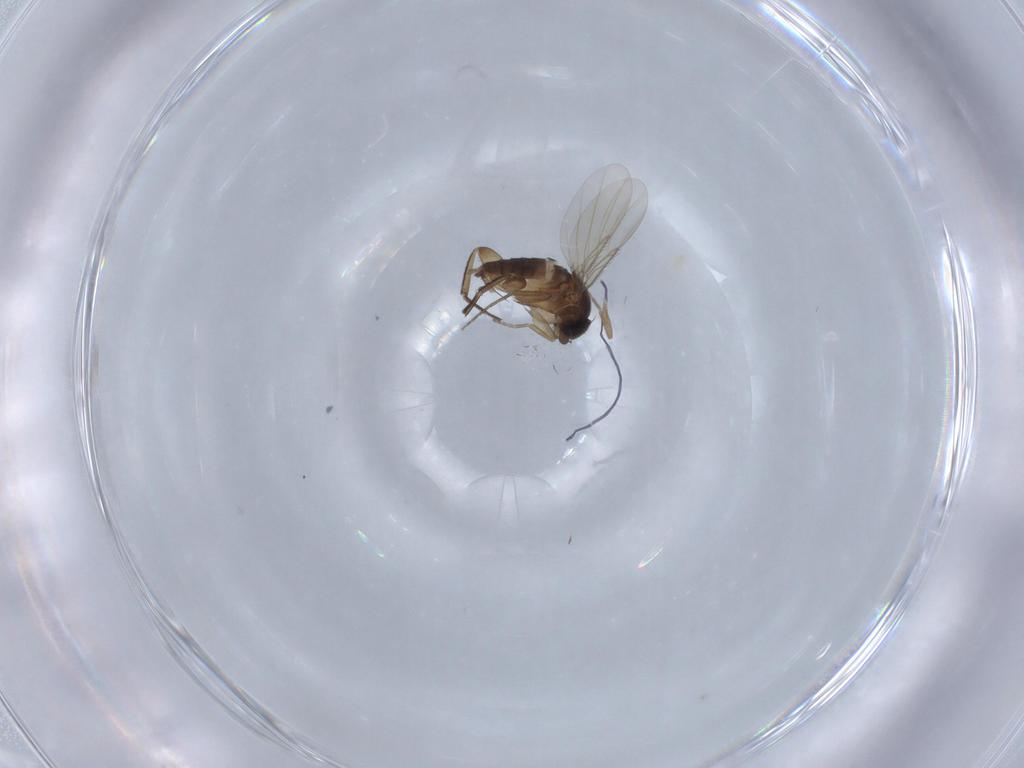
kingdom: Animalia
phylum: Arthropoda
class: Insecta
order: Diptera
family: Phoridae
